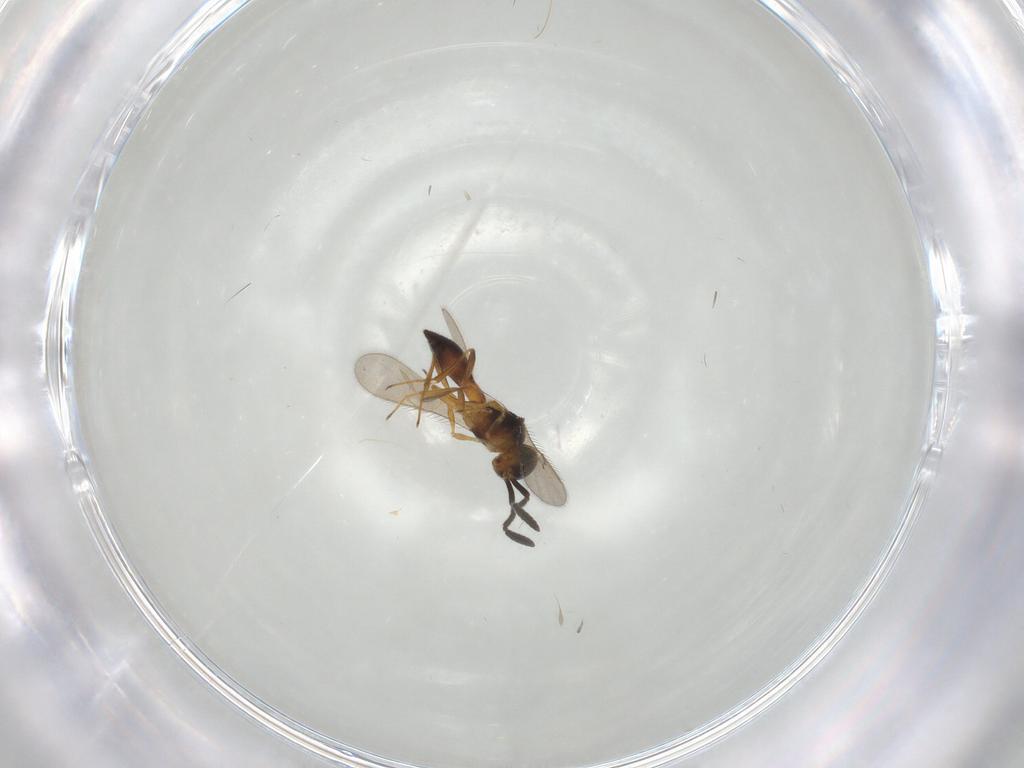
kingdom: Animalia
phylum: Arthropoda
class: Insecta
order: Hymenoptera
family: Scelionidae
